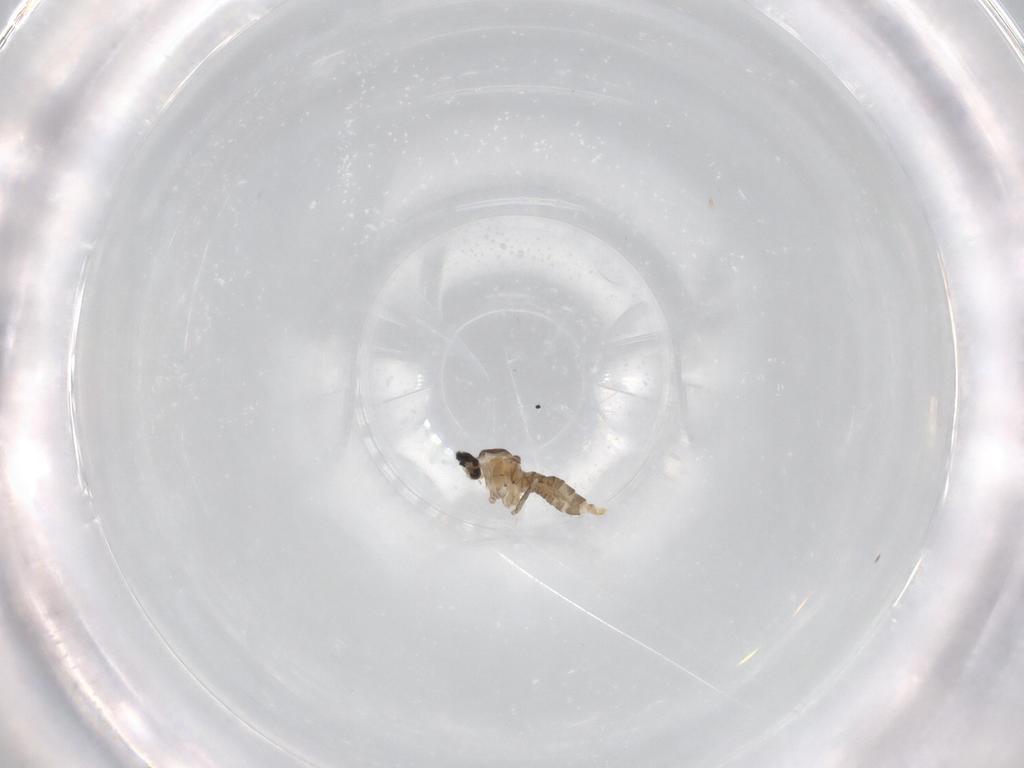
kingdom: Animalia
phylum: Arthropoda
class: Insecta
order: Diptera
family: Cecidomyiidae
